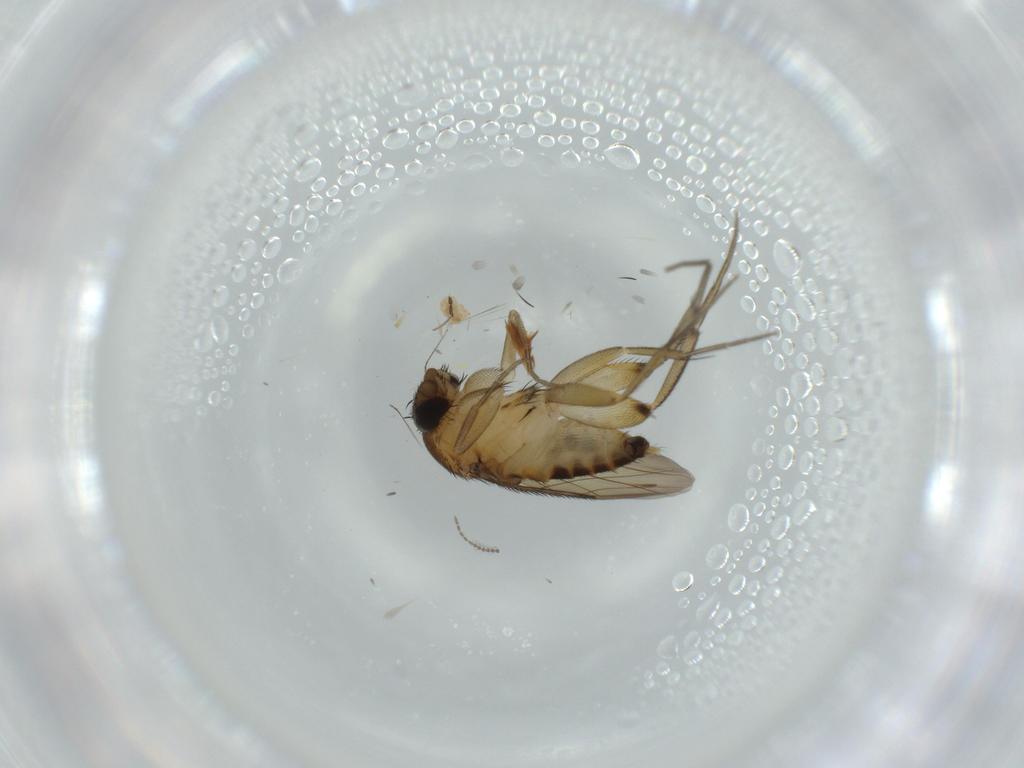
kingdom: Animalia
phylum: Arthropoda
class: Insecta
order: Diptera
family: Phoridae
